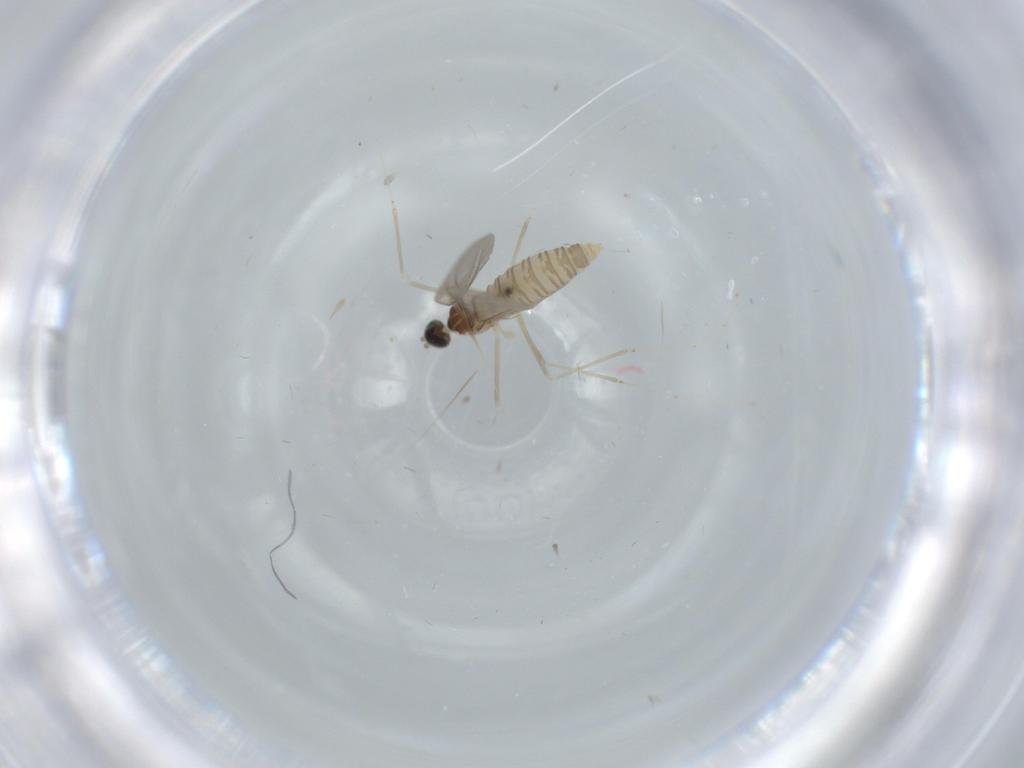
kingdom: Animalia
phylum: Arthropoda
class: Insecta
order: Diptera
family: Cecidomyiidae
